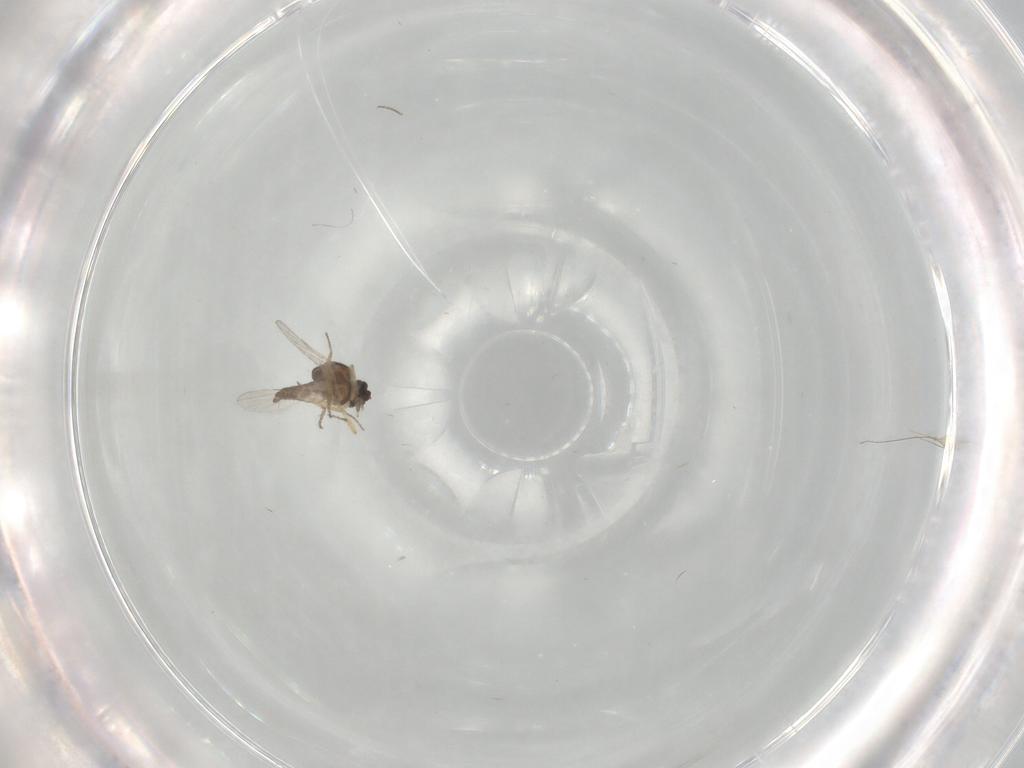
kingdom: Animalia
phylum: Arthropoda
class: Insecta
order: Diptera
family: Ceratopogonidae
